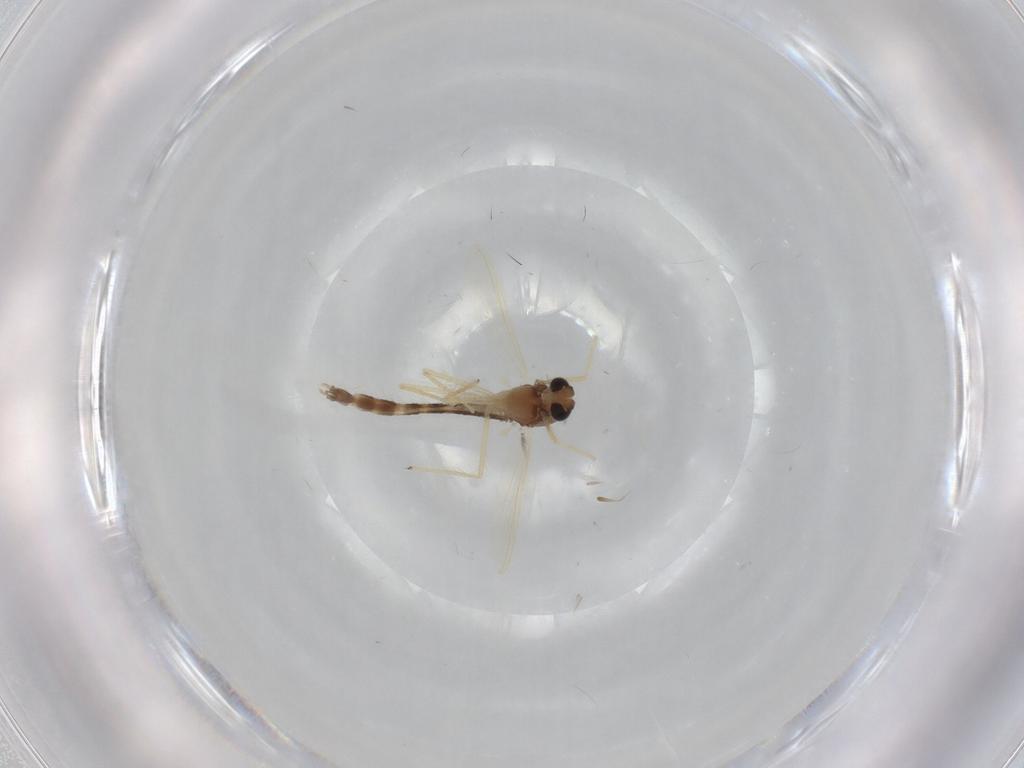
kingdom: Animalia
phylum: Arthropoda
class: Insecta
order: Diptera
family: Chironomidae
